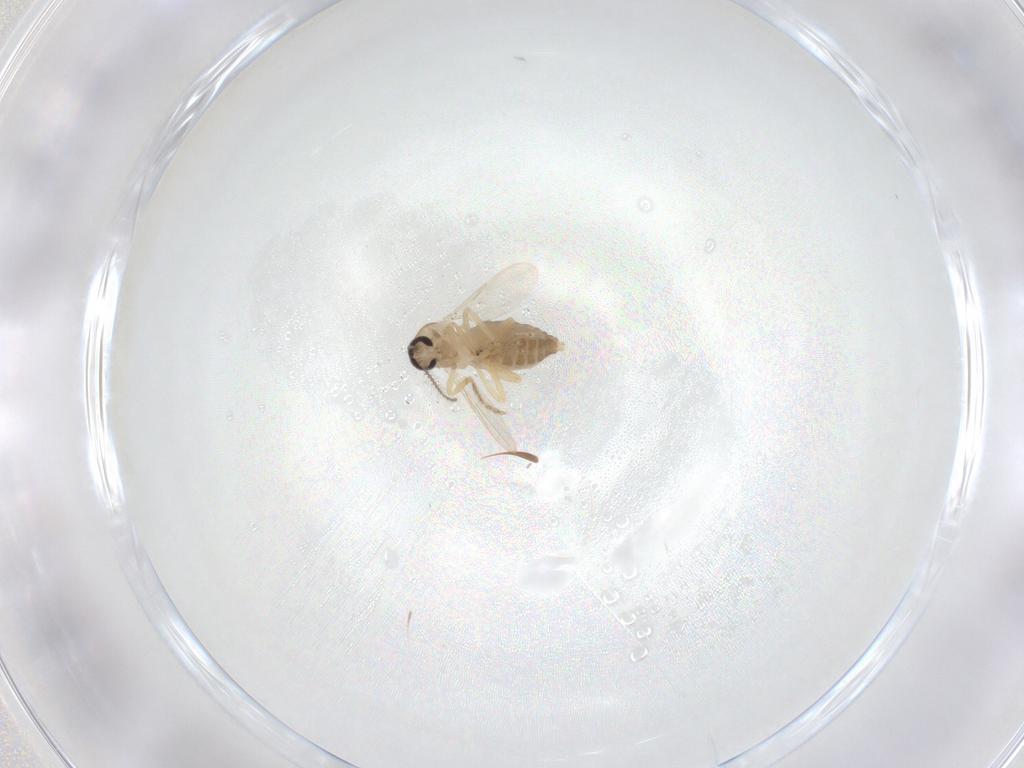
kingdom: Animalia
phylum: Arthropoda
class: Insecta
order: Diptera
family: Ceratopogonidae
